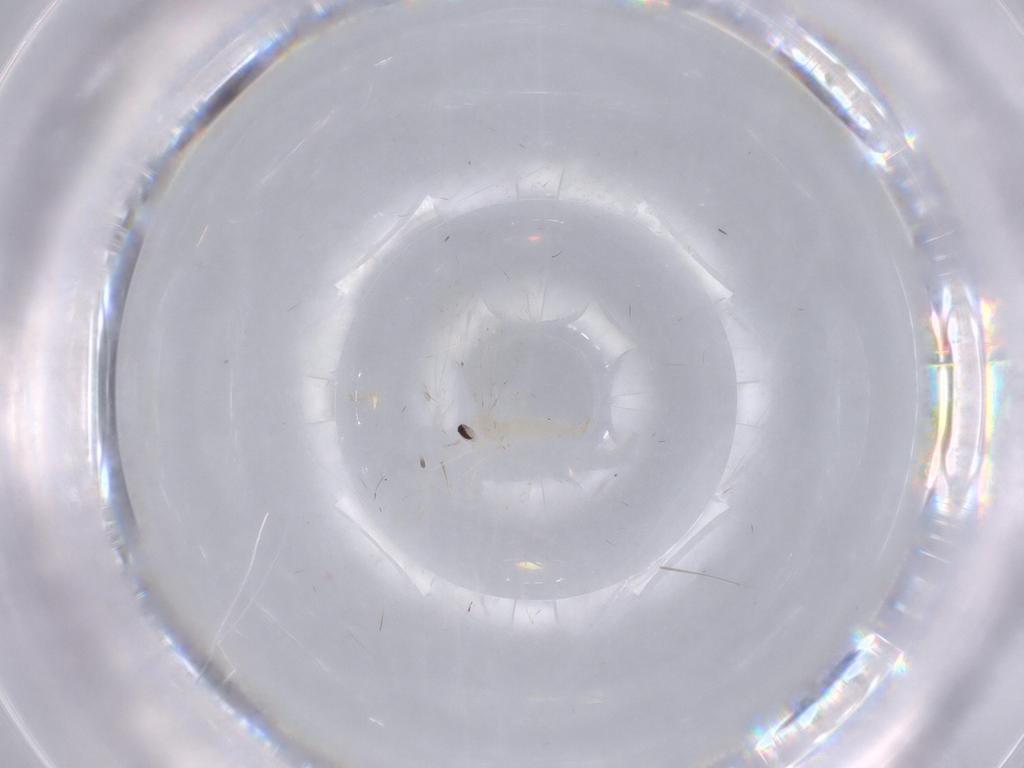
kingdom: Animalia
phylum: Arthropoda
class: Insecta
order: Diptera
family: Cecidomyiidae
